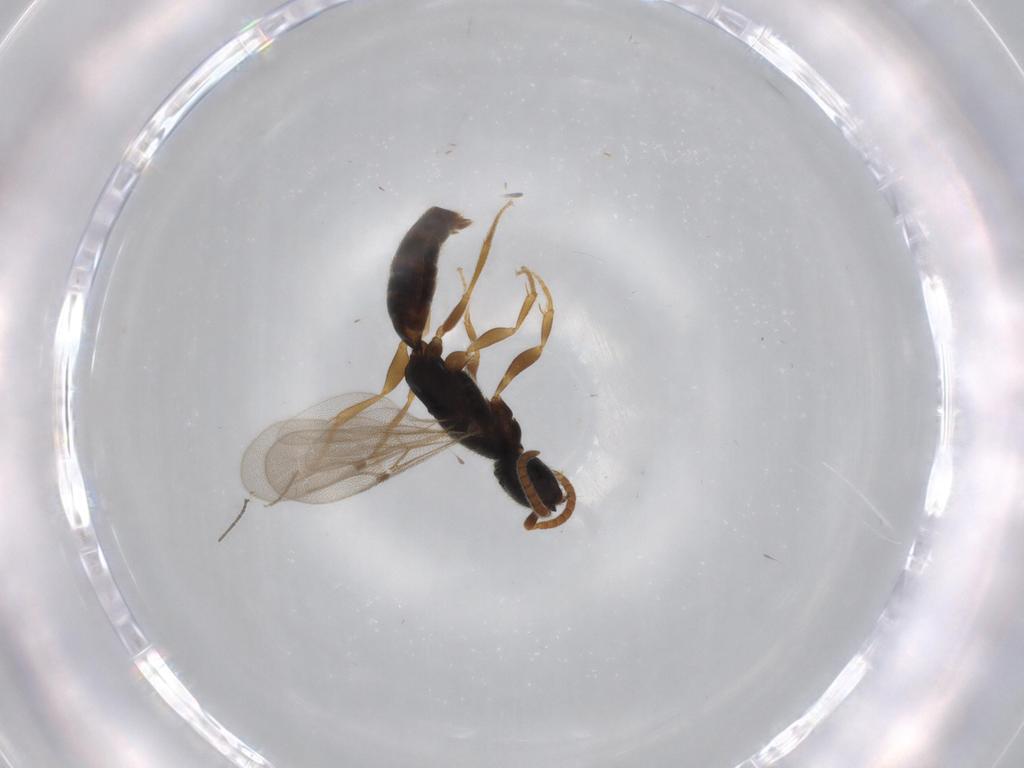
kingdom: Animalia
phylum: Arthropoda
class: Insecta
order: Hymenoptera
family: Bethylidae
